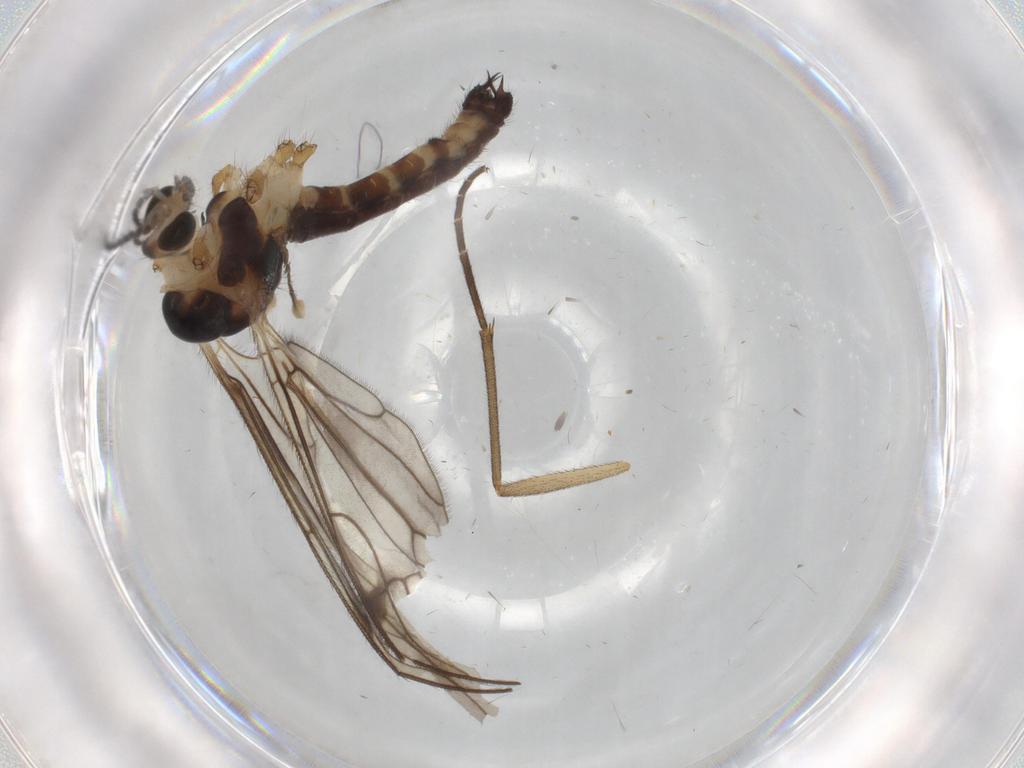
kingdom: Animalia
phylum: Arthropoda
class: Insecta
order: Diptera
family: Limoniidae
